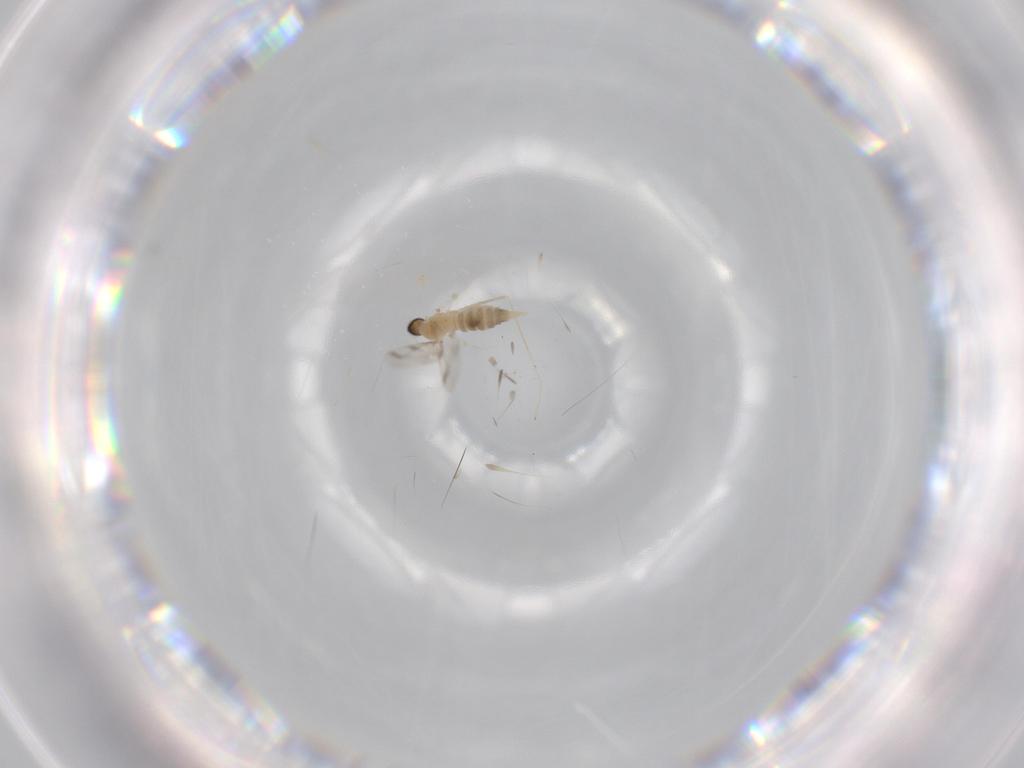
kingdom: Animalia
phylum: Arthropoda
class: Insecta
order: Diptera
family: Cecidomyiidae
